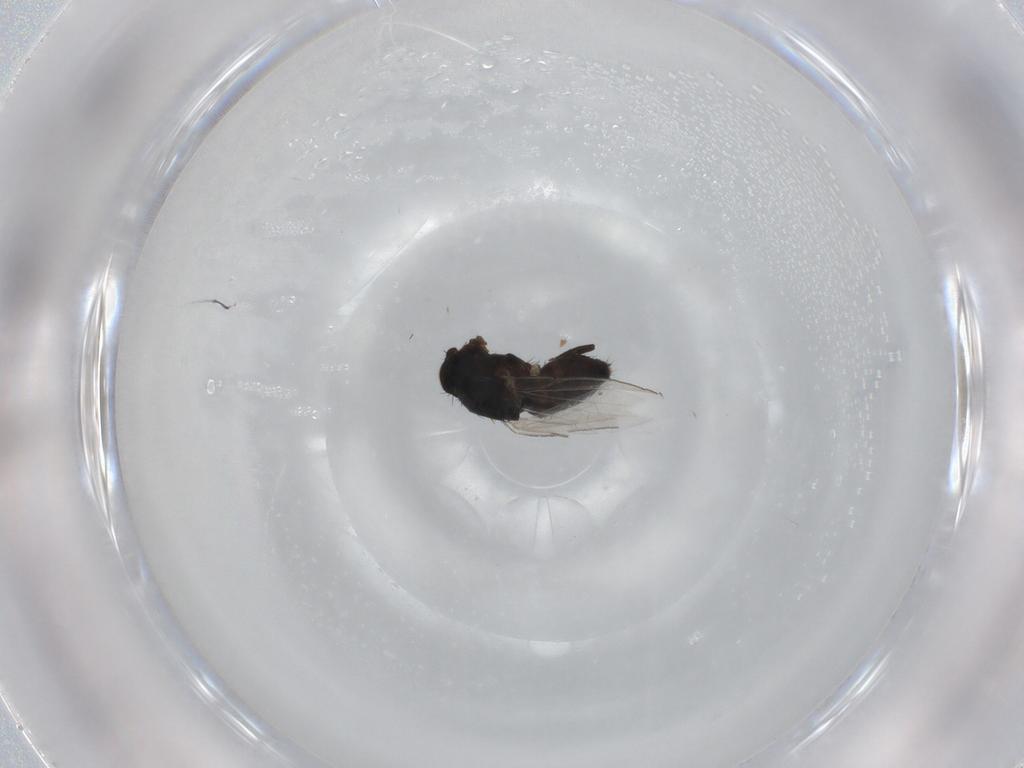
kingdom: Animalia
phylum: Arthropoda
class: Insecta
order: Diptera
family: Milichiidae
